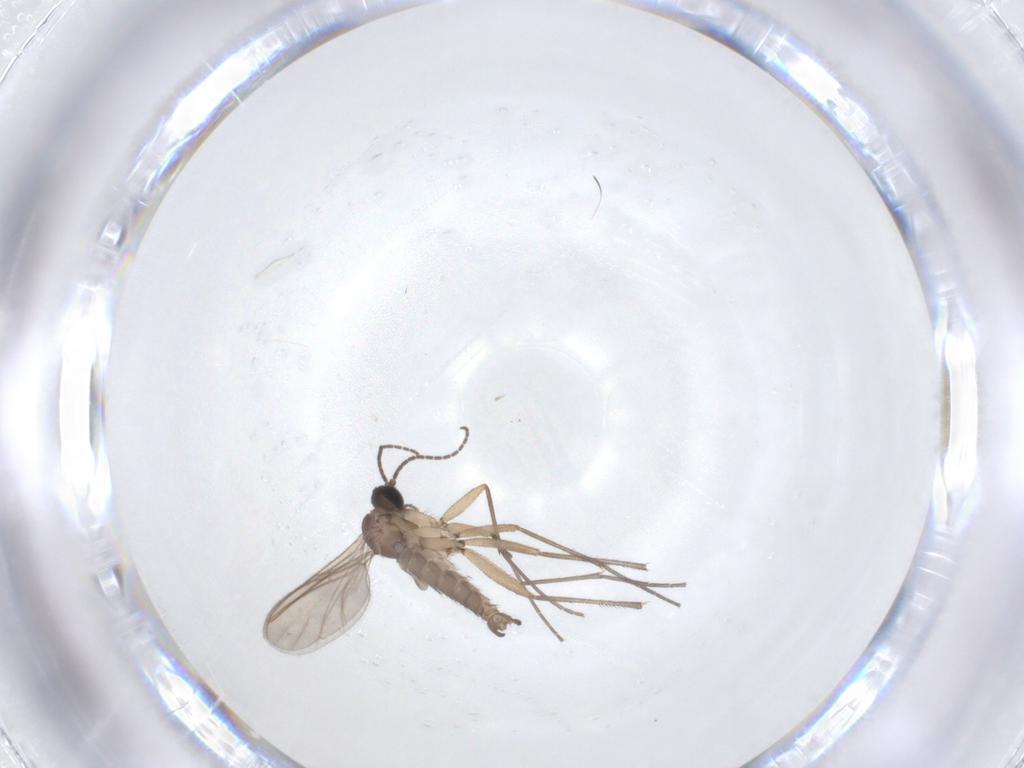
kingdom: Animalia
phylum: Arthropoda
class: Insecta
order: Diptera
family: Sciaridae
